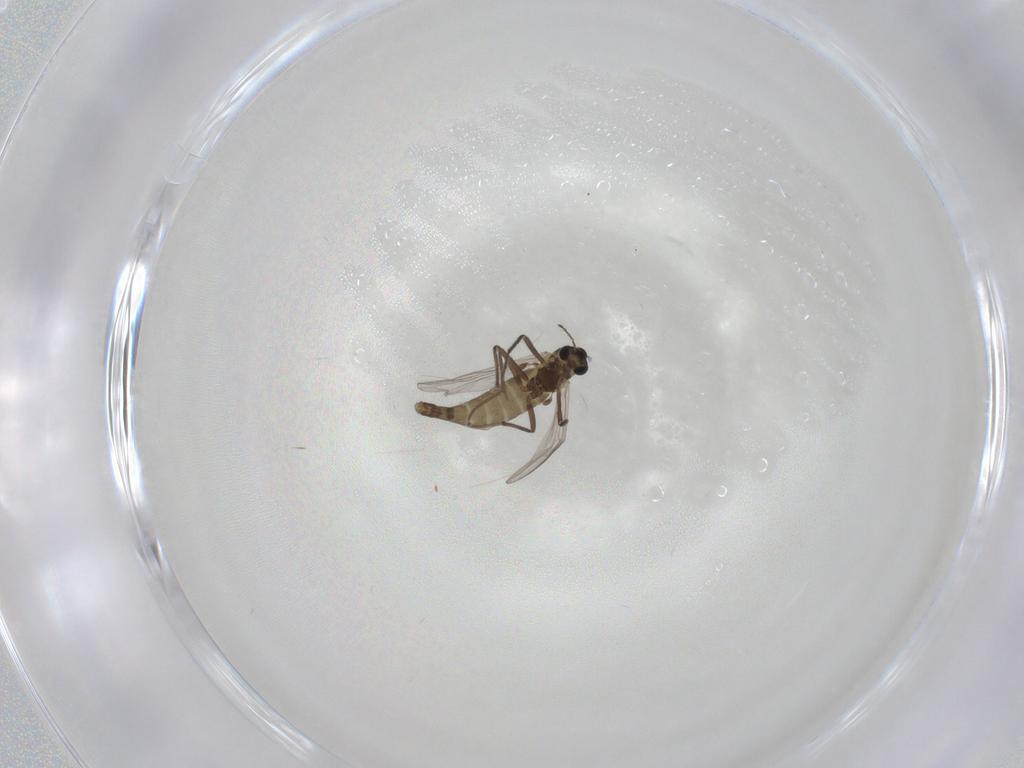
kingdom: Animalia
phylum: Arthropoda
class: Insecta
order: Diptera
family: Chironomidae
